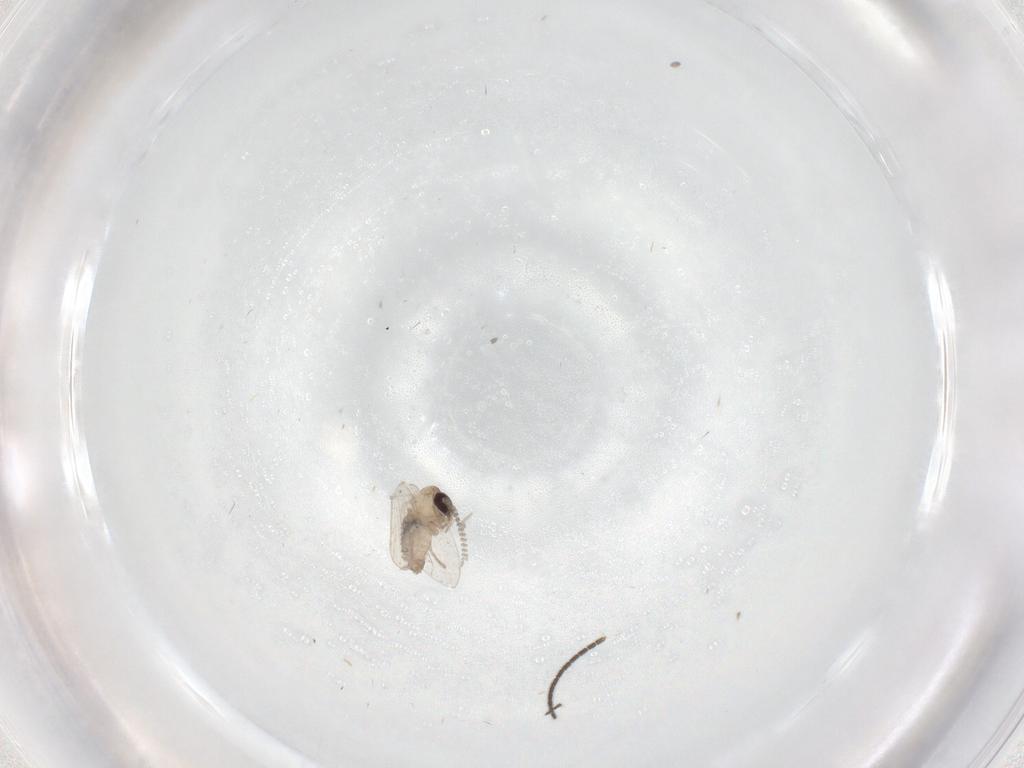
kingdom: Animalia
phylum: Arthropoda
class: Insecta
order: Diptera
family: Psychodidae
